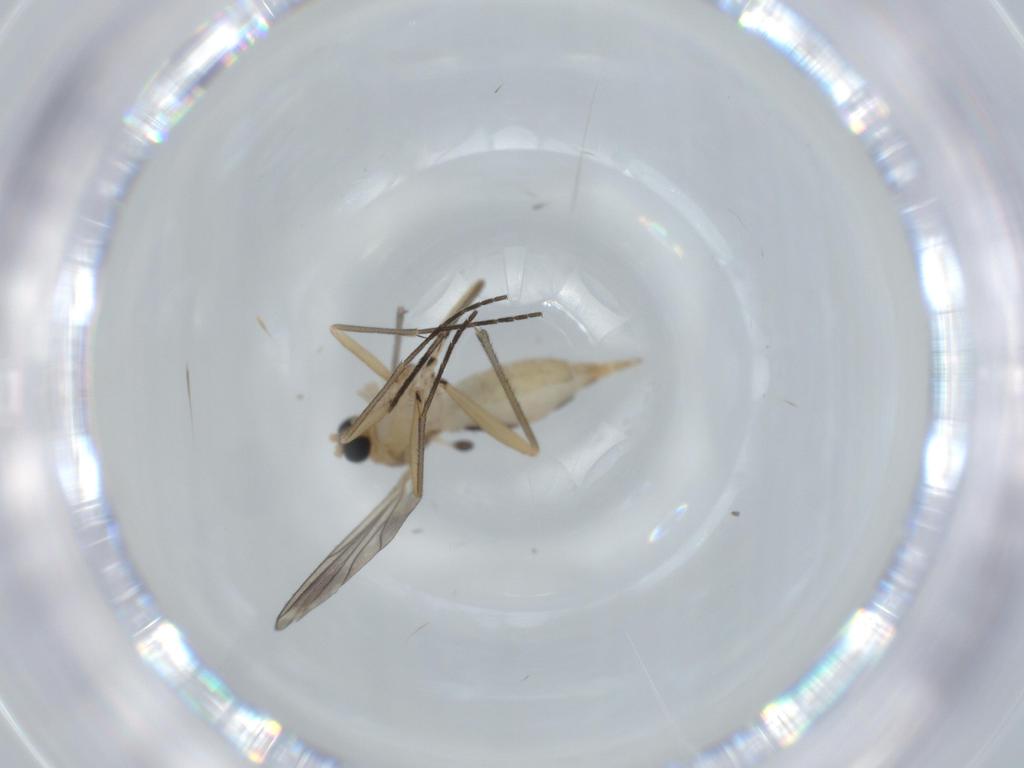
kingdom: Animalia
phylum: Arthropoda
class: Insecta
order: Diptera
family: Sciaridae
